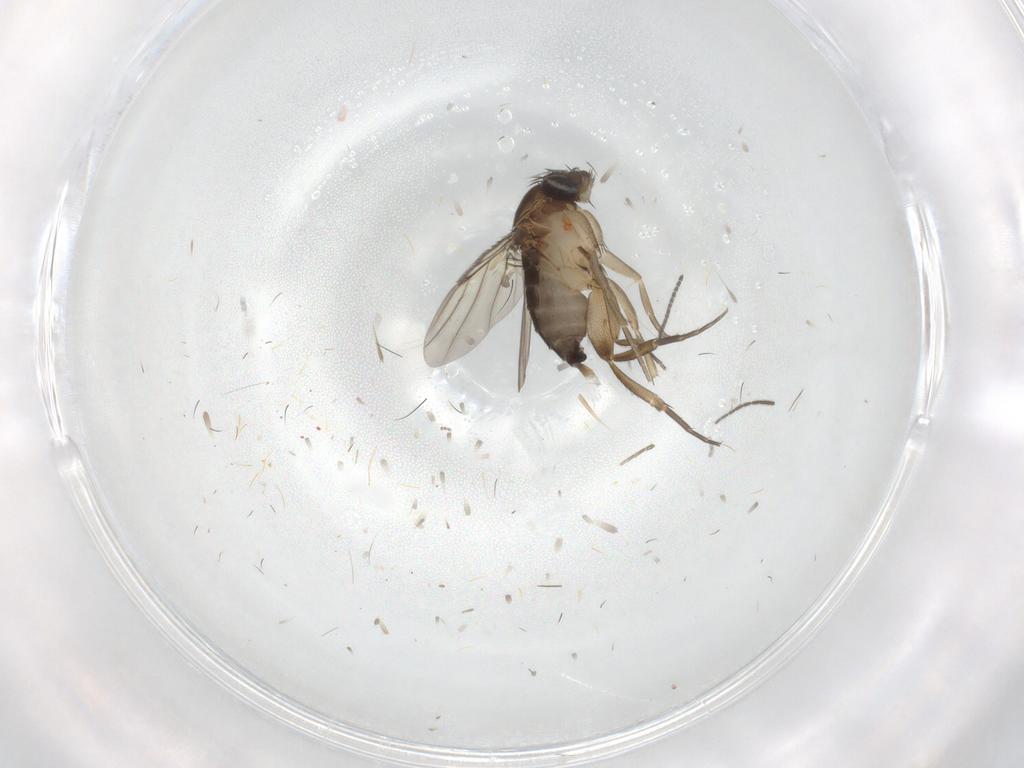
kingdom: Animalia
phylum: Arthropoda
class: Insecta
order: Diptera
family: Phoridae
